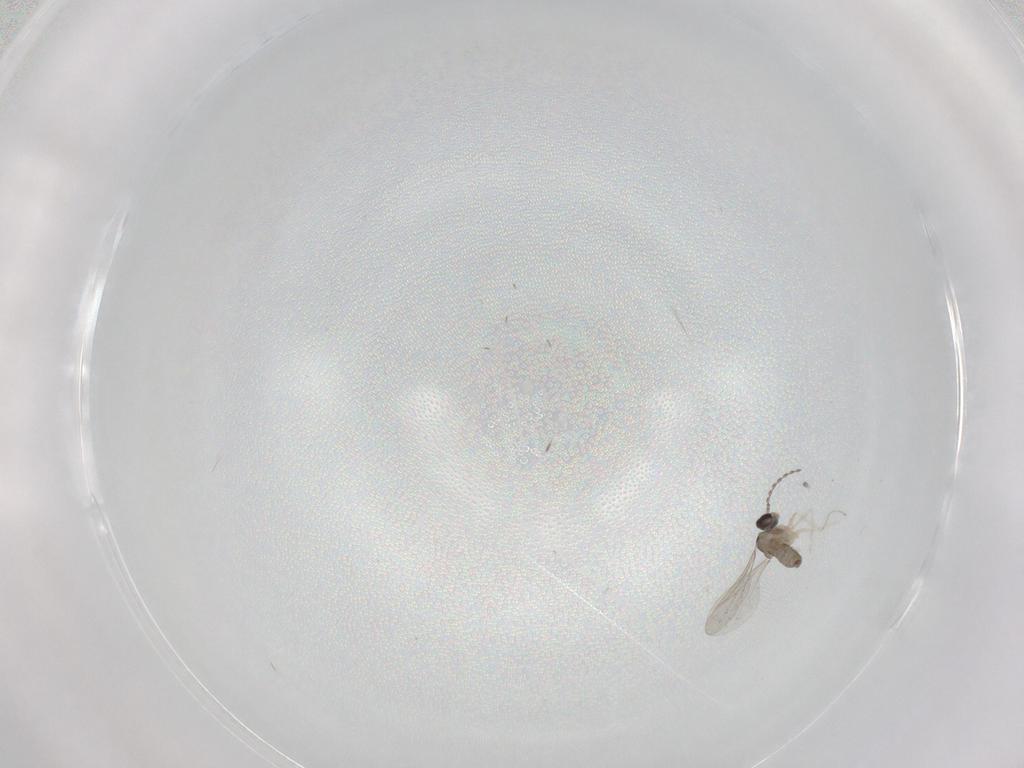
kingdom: Animalia
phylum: Arthropoda
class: Insecta
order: Diptera
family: Cecidomyiidae
